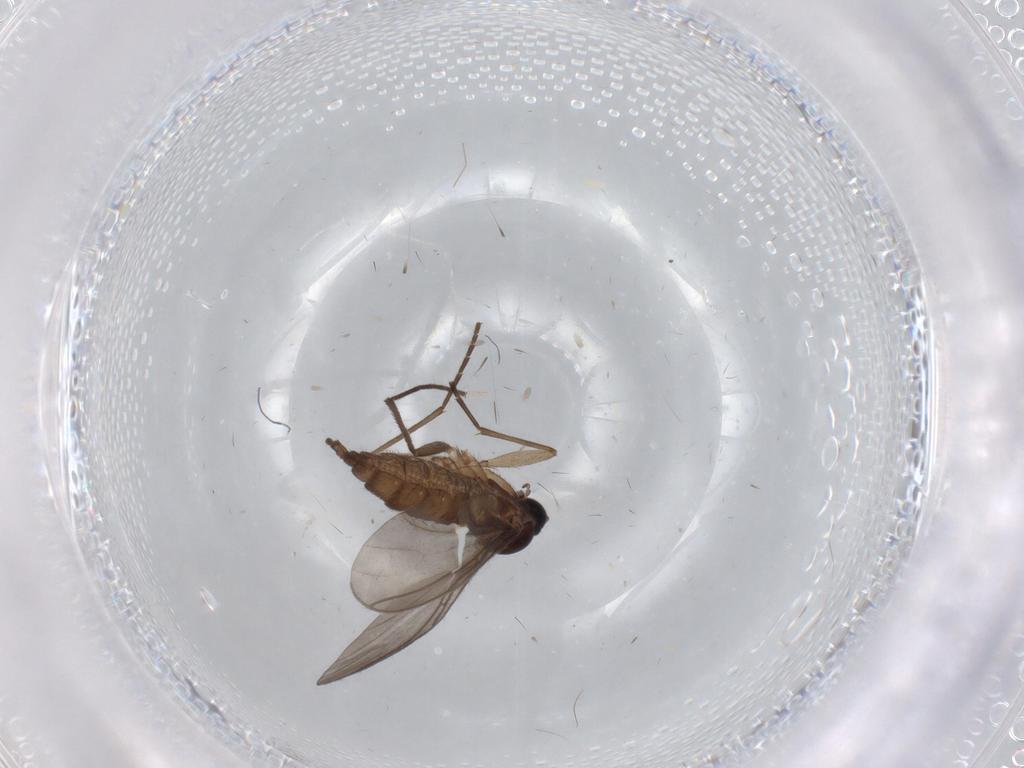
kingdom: Animalia
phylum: Arthropoda
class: Insecta
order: Diptera
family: Sciaridae
